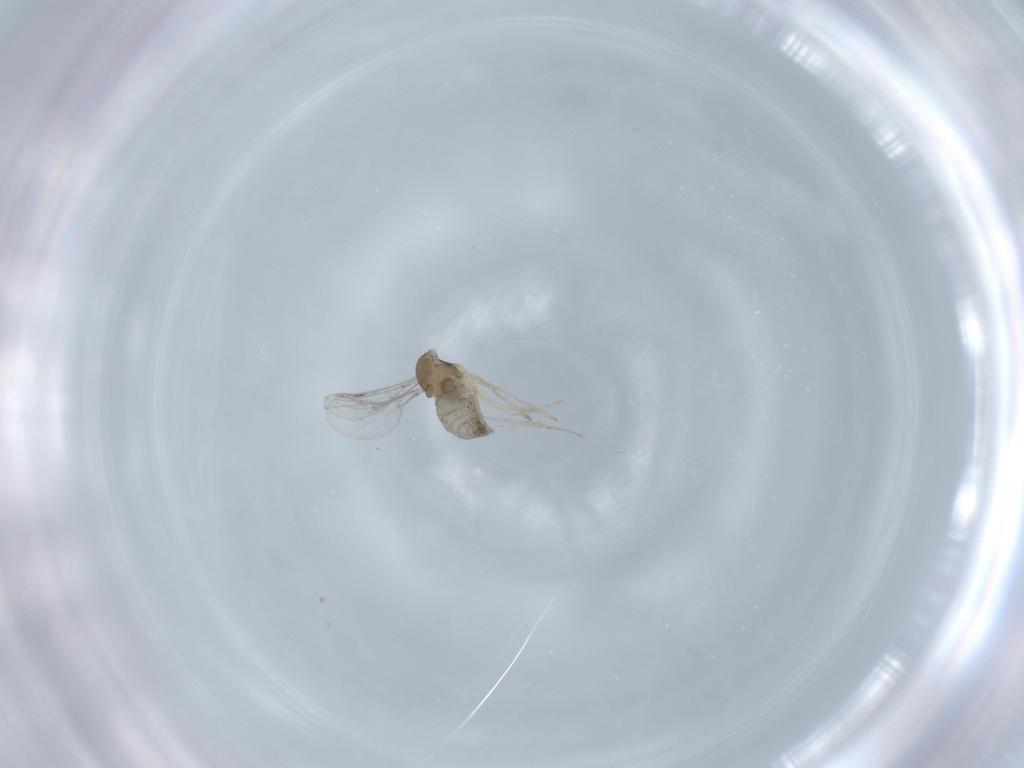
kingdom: Animalia
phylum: Arthropoda
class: Insecta
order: Diptera
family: Cecidomyiidae
